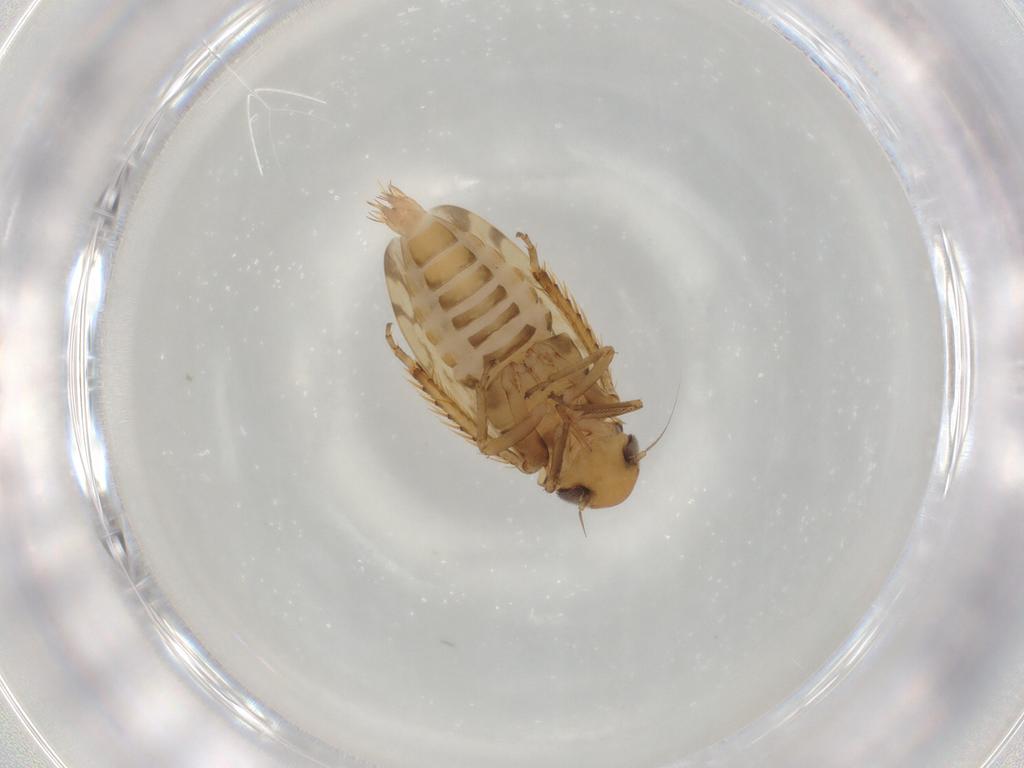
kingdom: Animalia
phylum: Arthropoda
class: Insecta
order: Hemiptera
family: Cicadellidae
